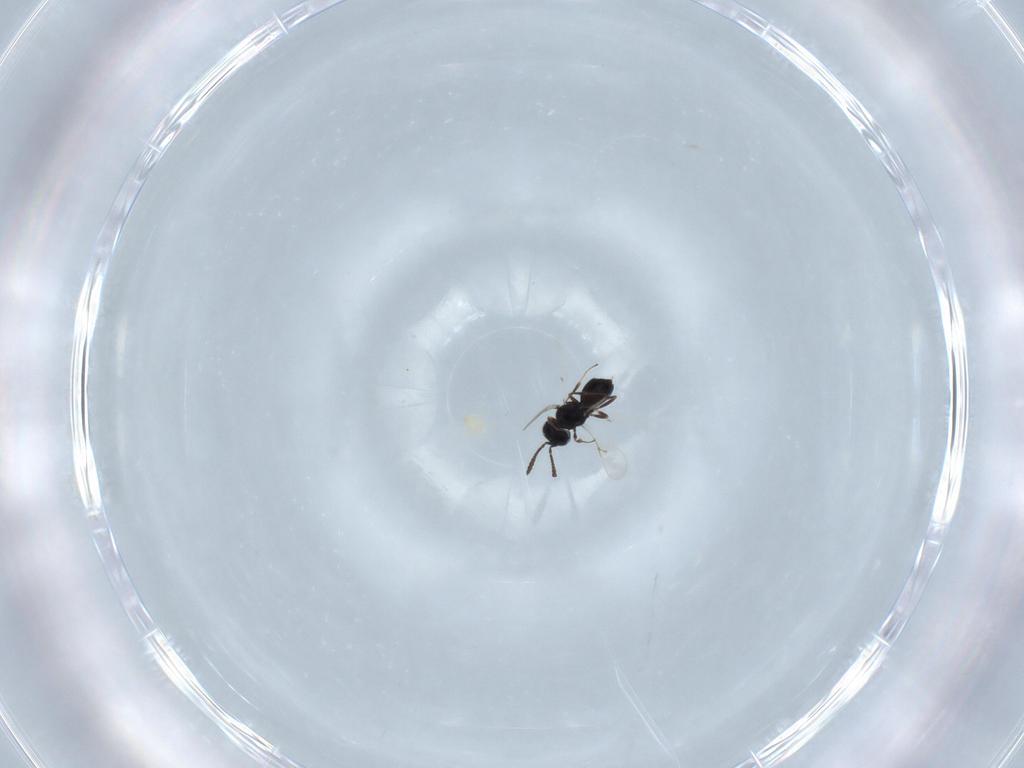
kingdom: Animalia
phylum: Arthropoda
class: Insecta
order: Hymenoptera
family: Scelionidae
